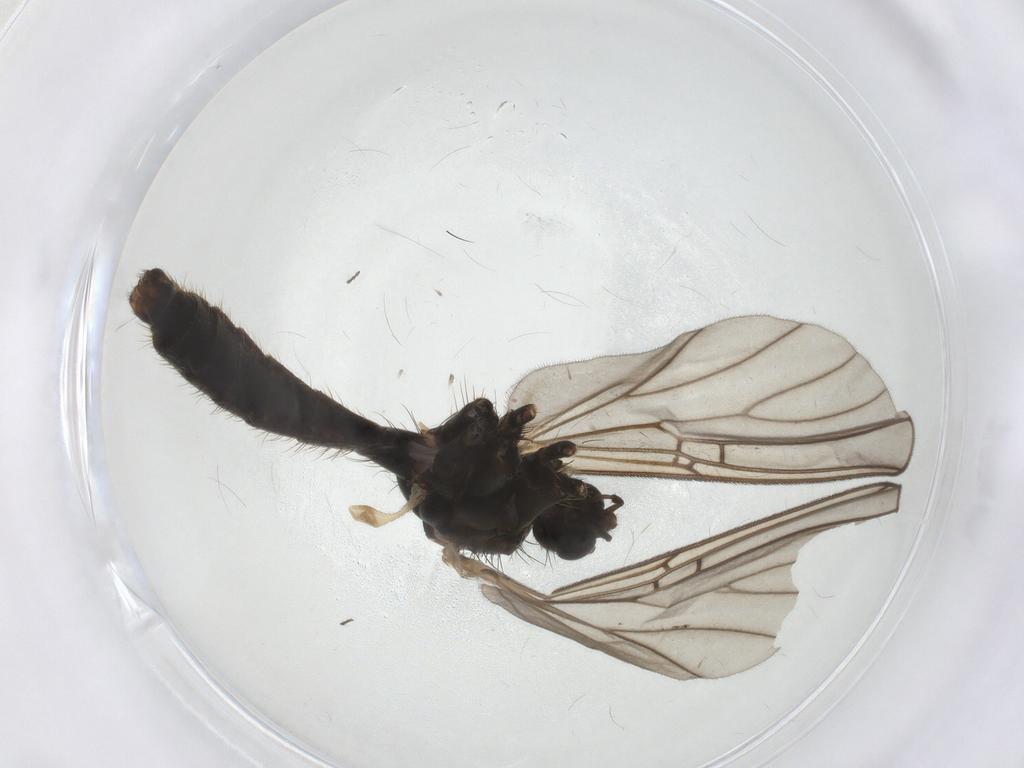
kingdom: Animalia
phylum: Arthropoda
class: Insecta
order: Diptera
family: Mycetophilidae
